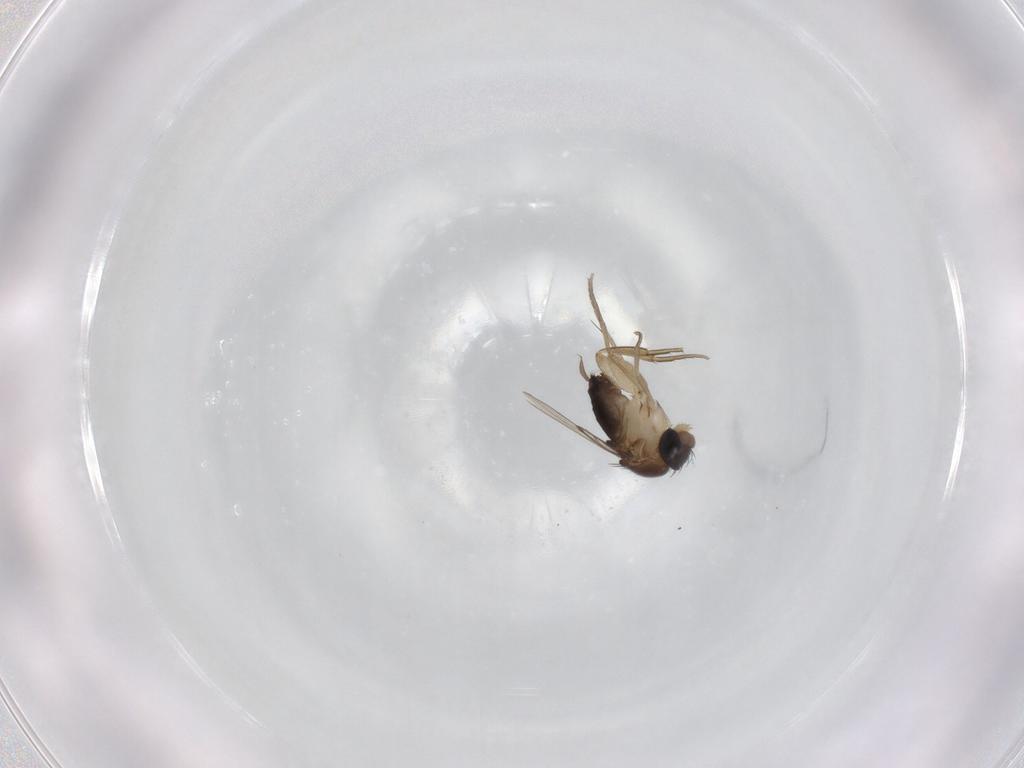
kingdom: Animalia
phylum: Arthropoda
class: Insecta
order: Diptera
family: Phoridae
